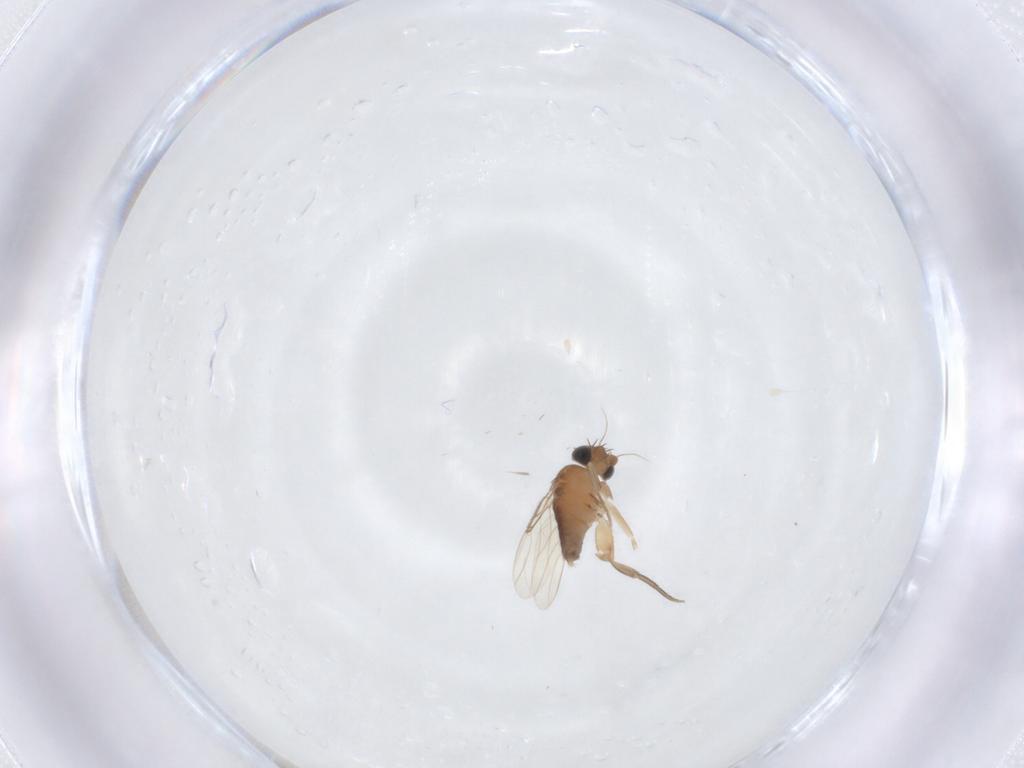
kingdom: Animalia
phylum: Arthropoda
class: Insecta
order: Diptera
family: Phoridae
